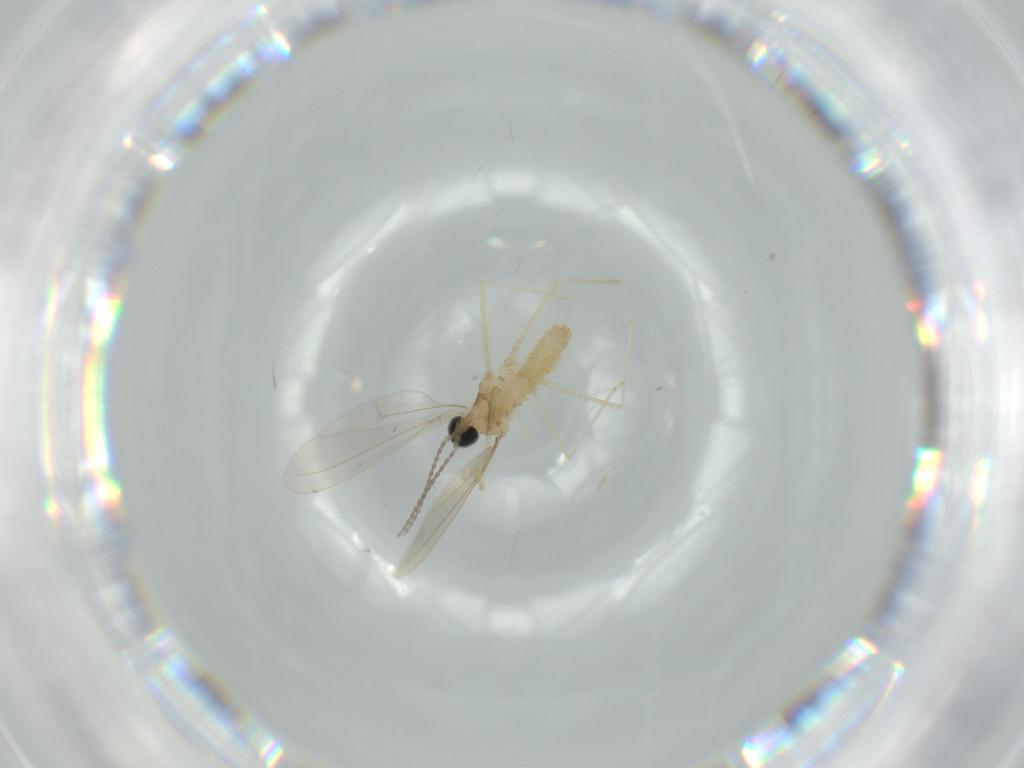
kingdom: Animalia
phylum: Arthropoda
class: Insecta
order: Diptera
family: Cecidomyiidae
